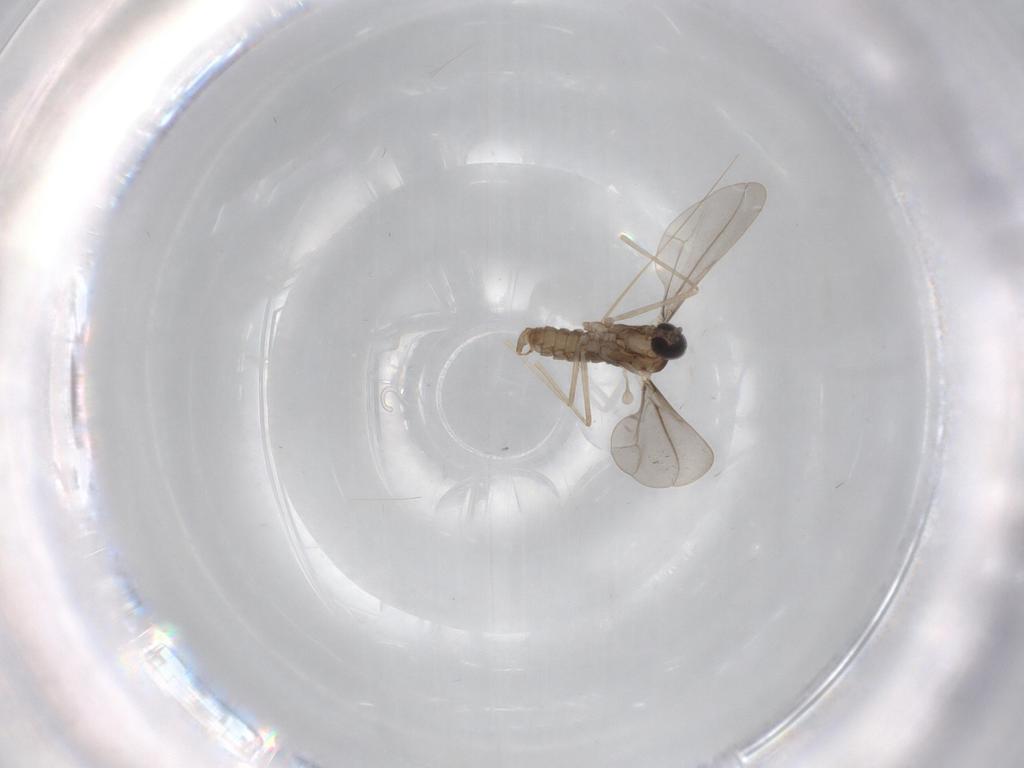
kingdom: Animalia
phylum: Arthropoda
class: Insecta
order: Diptera
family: Cecidomyiidae
